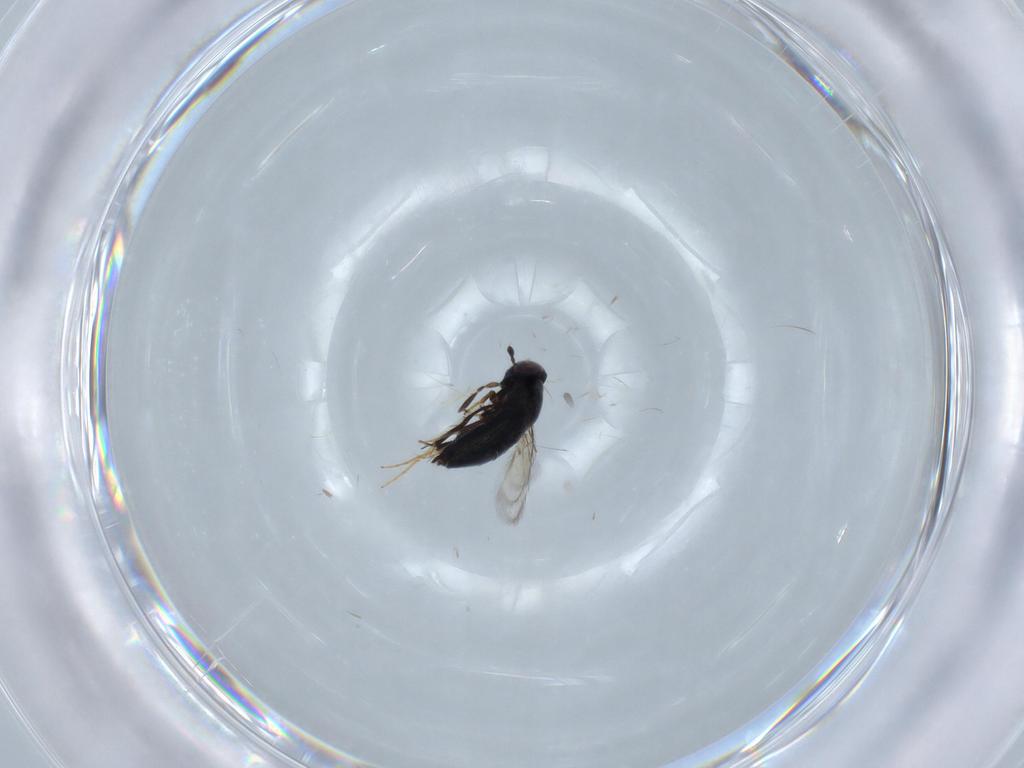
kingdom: Animalia
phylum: Arthropoda
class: Insecta
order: Hymenoptera
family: Signiphoridae
